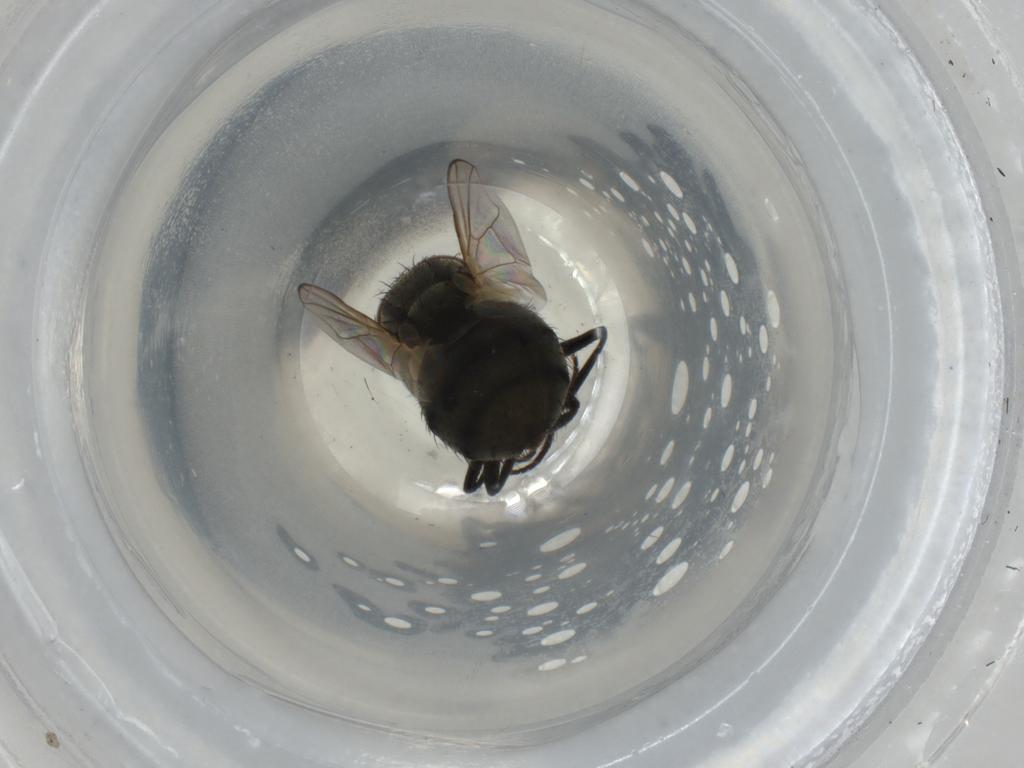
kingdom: Animalia
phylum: Arthropoda
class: Insecta
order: Diptera
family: Muscidae
